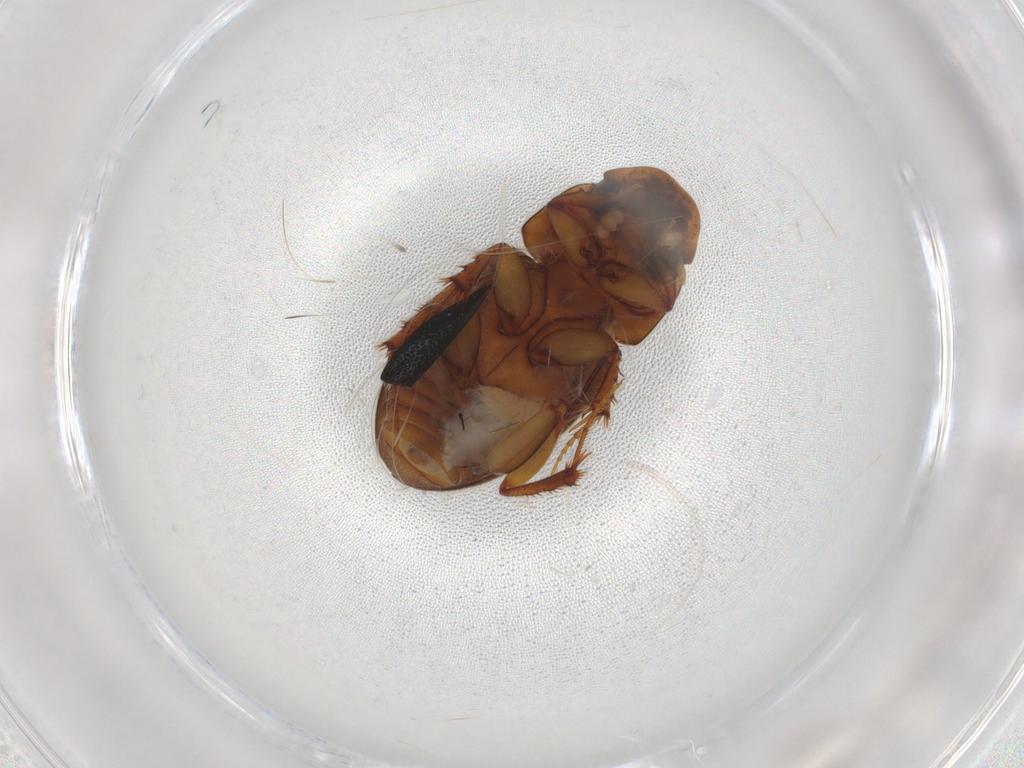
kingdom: Animalia
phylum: Arthropoda
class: Insecta
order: Coleoptera
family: Scarabaeidae
